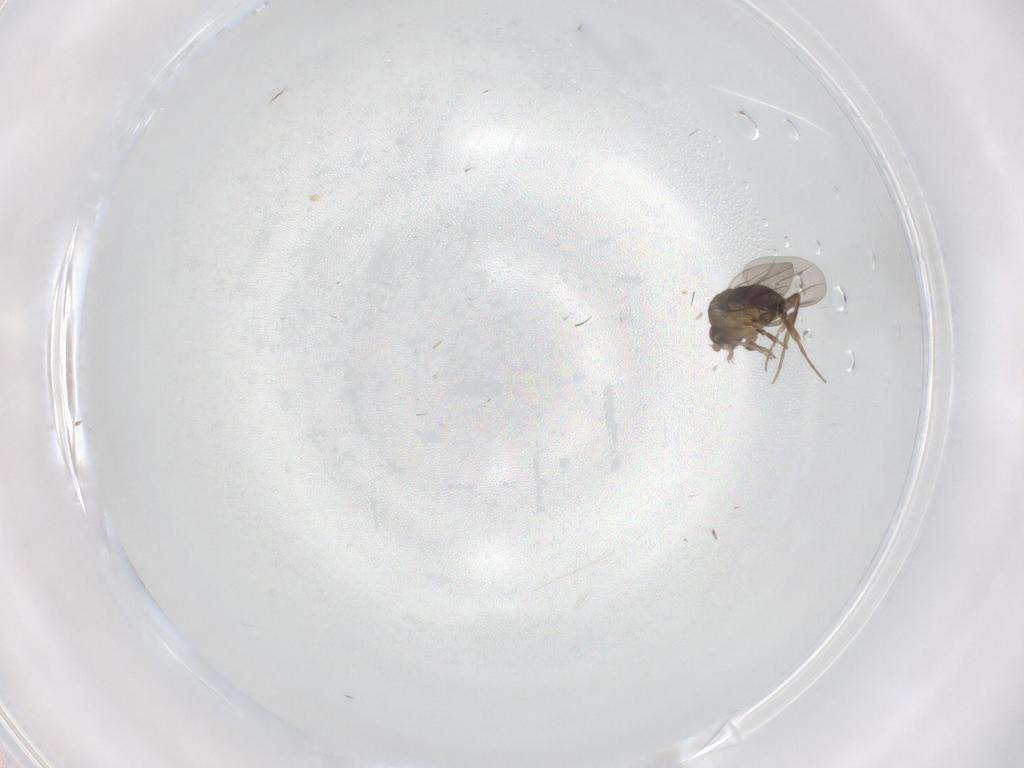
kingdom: Animalia
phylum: Arthropoda
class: Insecta
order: Diptera
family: Phoridae
